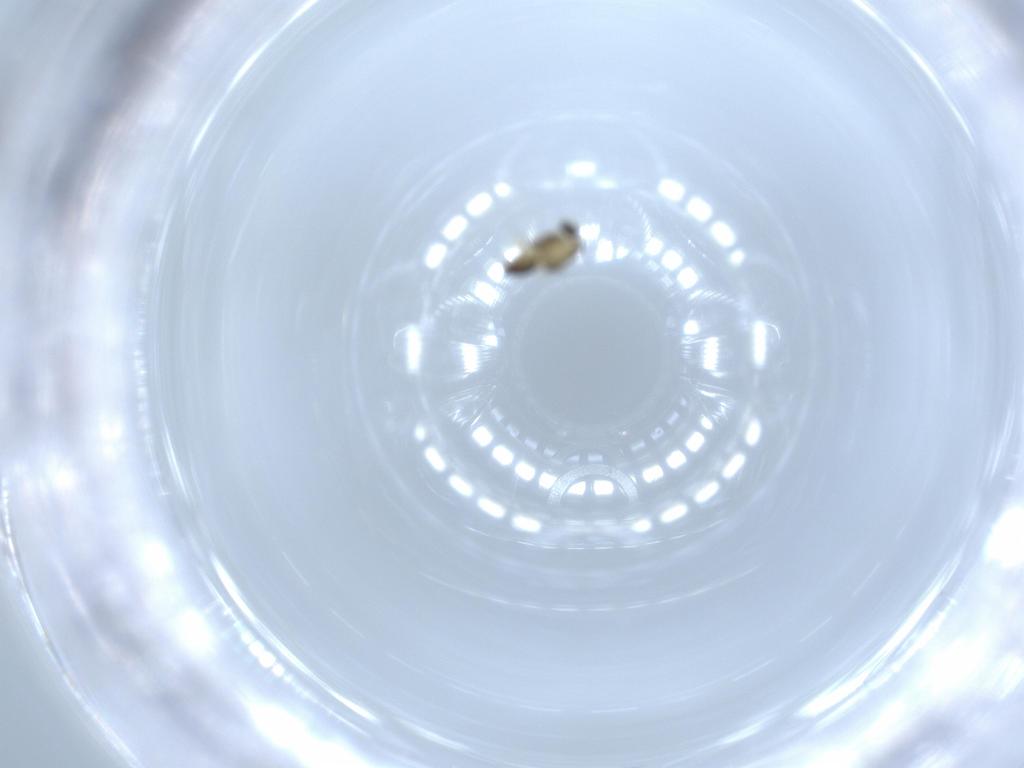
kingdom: Animalia
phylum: Arthropoda
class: Insecta
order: Diptera
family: Chironomidae
